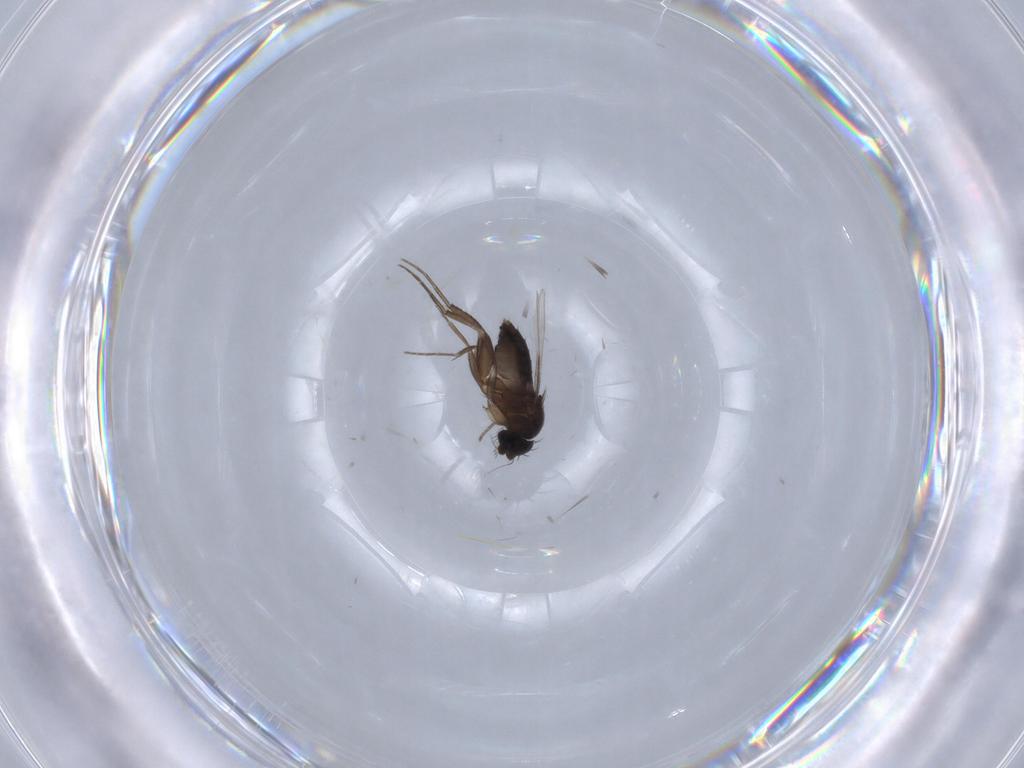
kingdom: Animalia
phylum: Arthropoda
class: Insecta
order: Diptera
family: Phoridae
